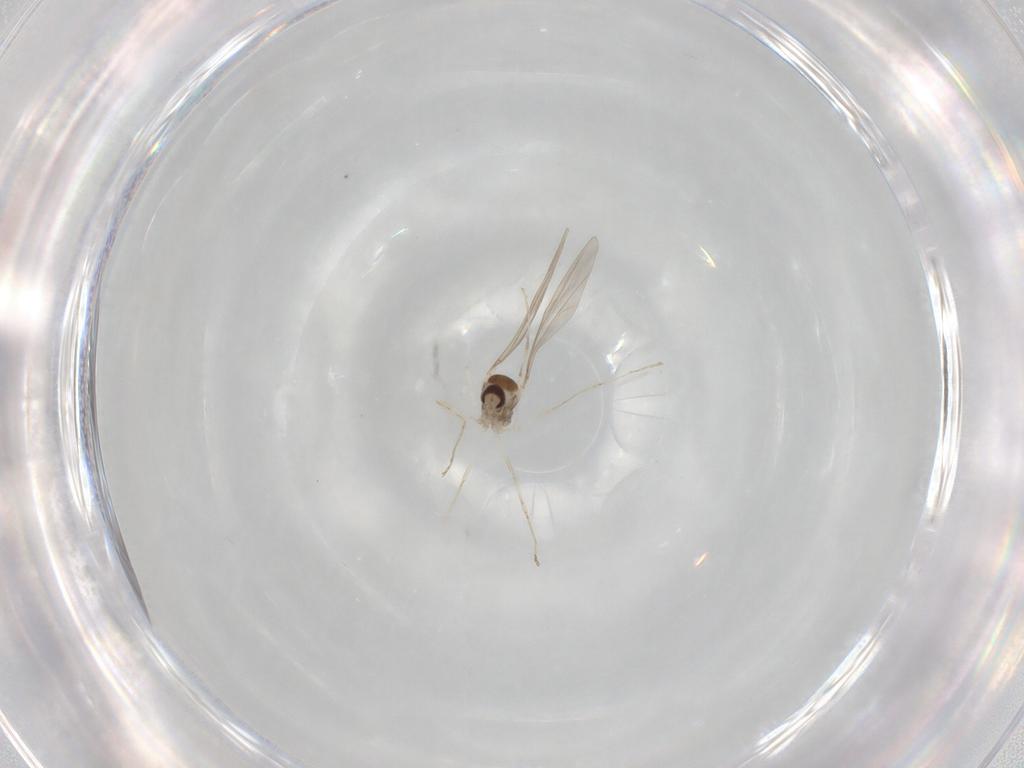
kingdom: Animalia
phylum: Arthropoda
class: Insecta
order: Diptera
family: Cecidomyiidae
